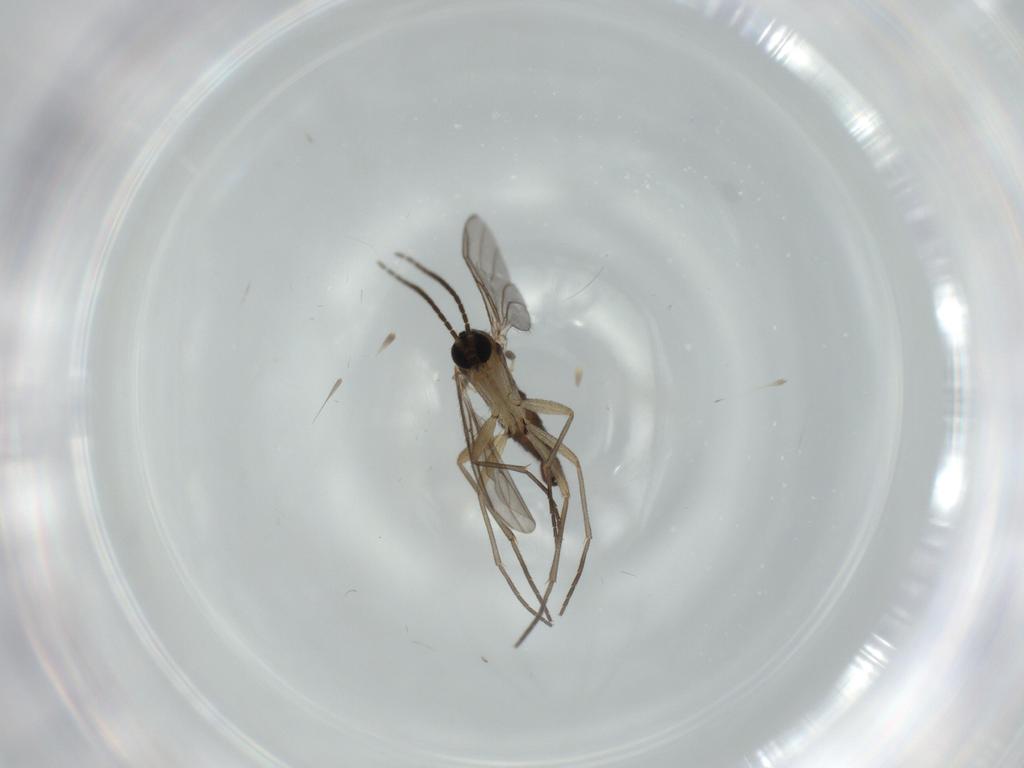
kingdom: Animalia
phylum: Arthropoda
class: Insecta
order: Diptera
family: Sciaridae
